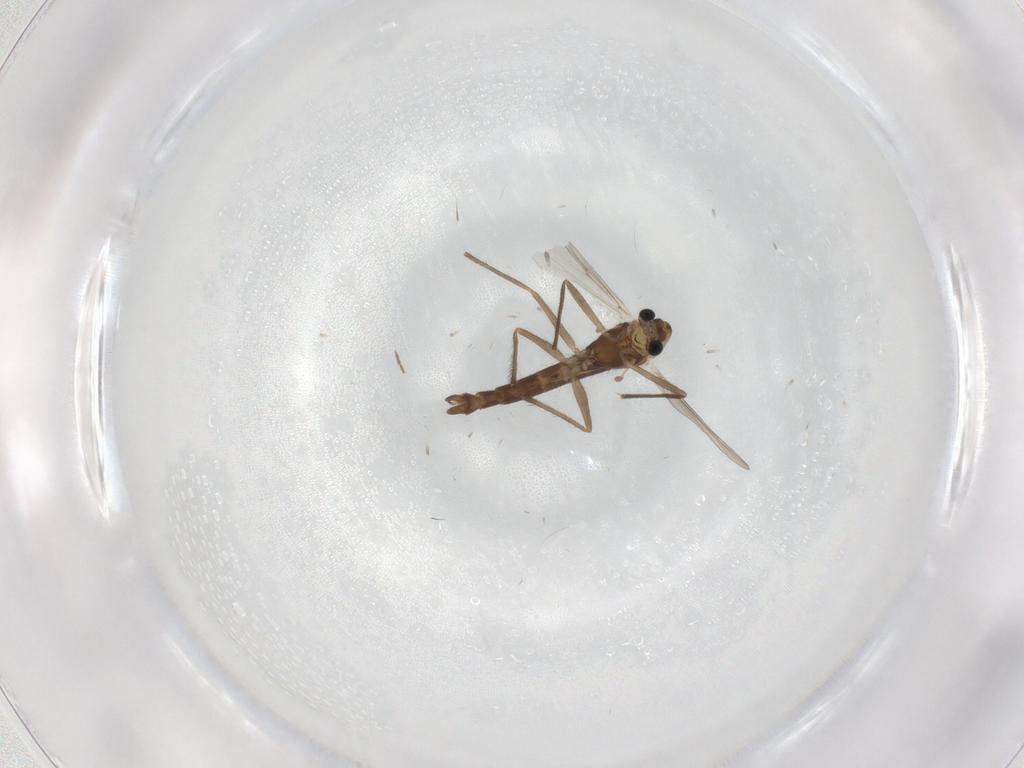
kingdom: Animalia
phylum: Arthropoda
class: Insecta
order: Diptera
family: Chironomidae
